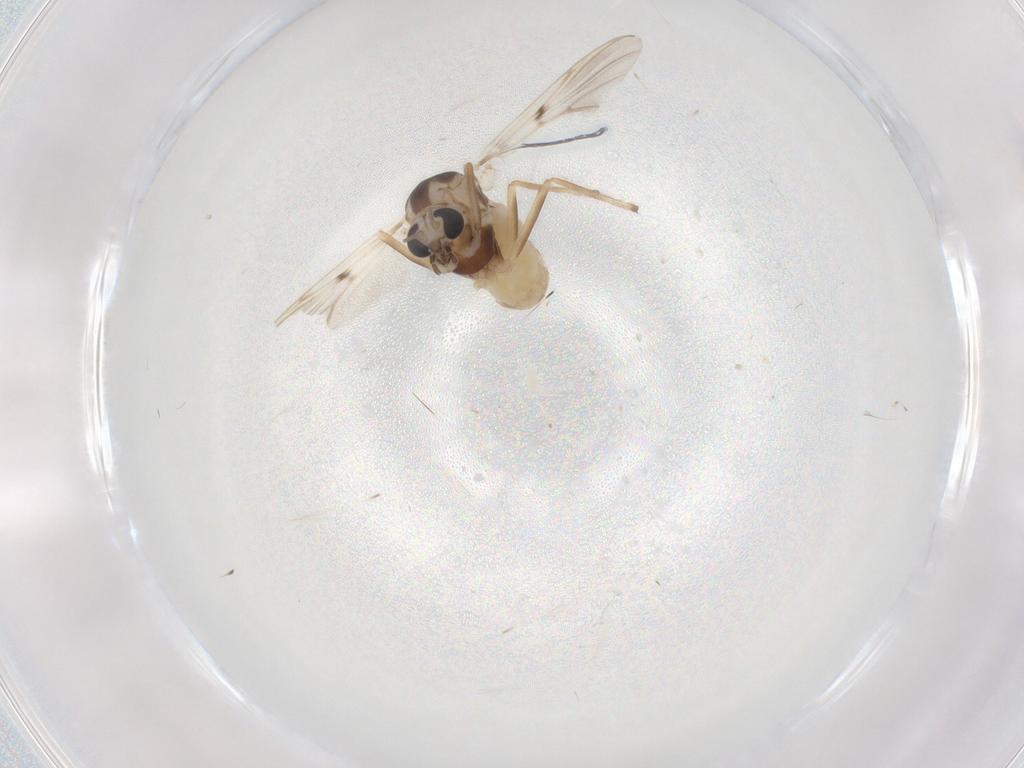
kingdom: Animalia
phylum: Arthropoda
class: Insecta
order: Diptera
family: Chironomidae
